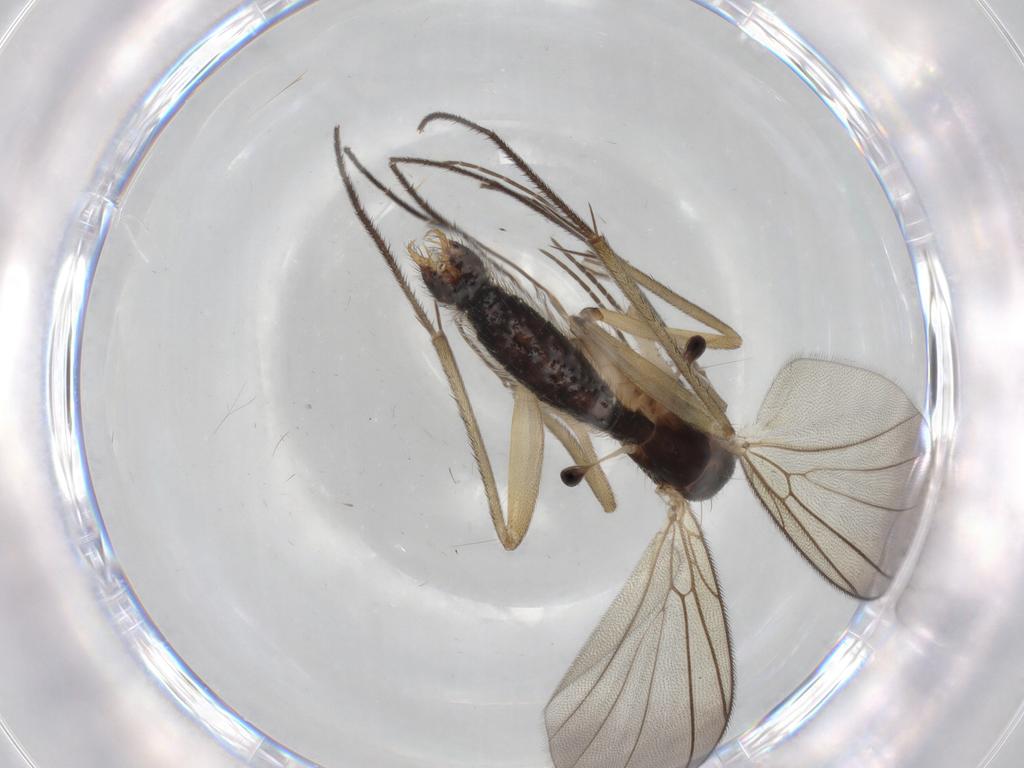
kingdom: Animalia
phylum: Arthropoda
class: Insecta
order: Diptera
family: Mycetophilidae
